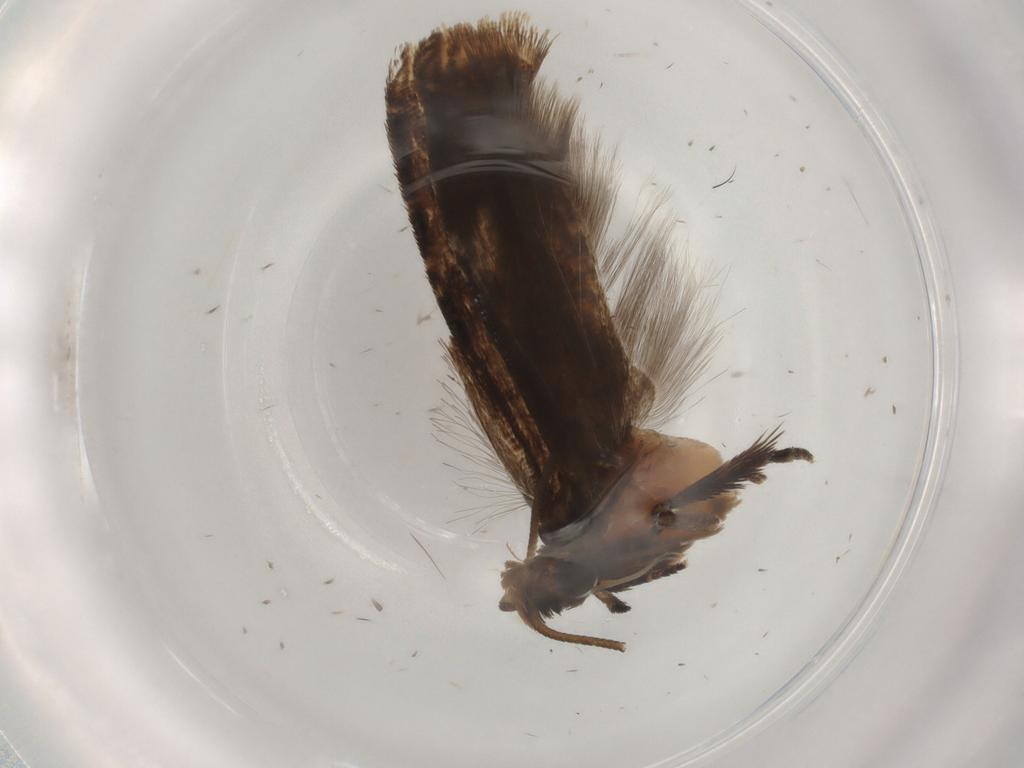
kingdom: Animalia
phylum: Arthropoda
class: Insecta
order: Lepidoptera
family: Tortricidae
